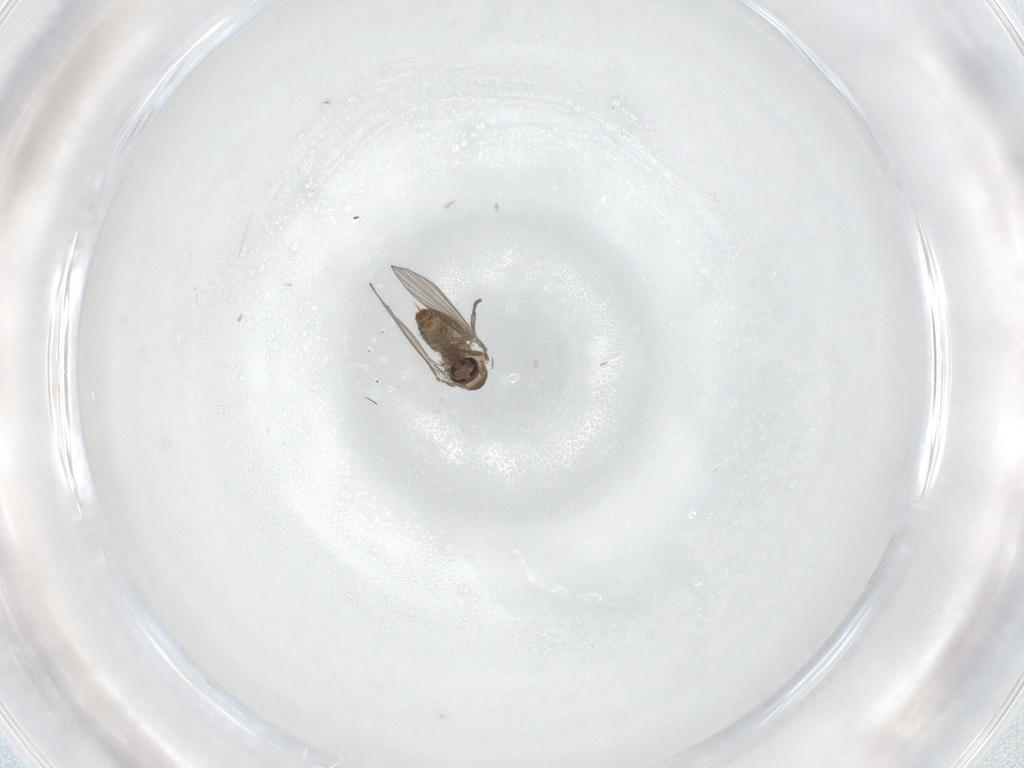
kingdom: Animalia
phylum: Arthropoda
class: Insecta
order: Diptera
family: Psychodidae
